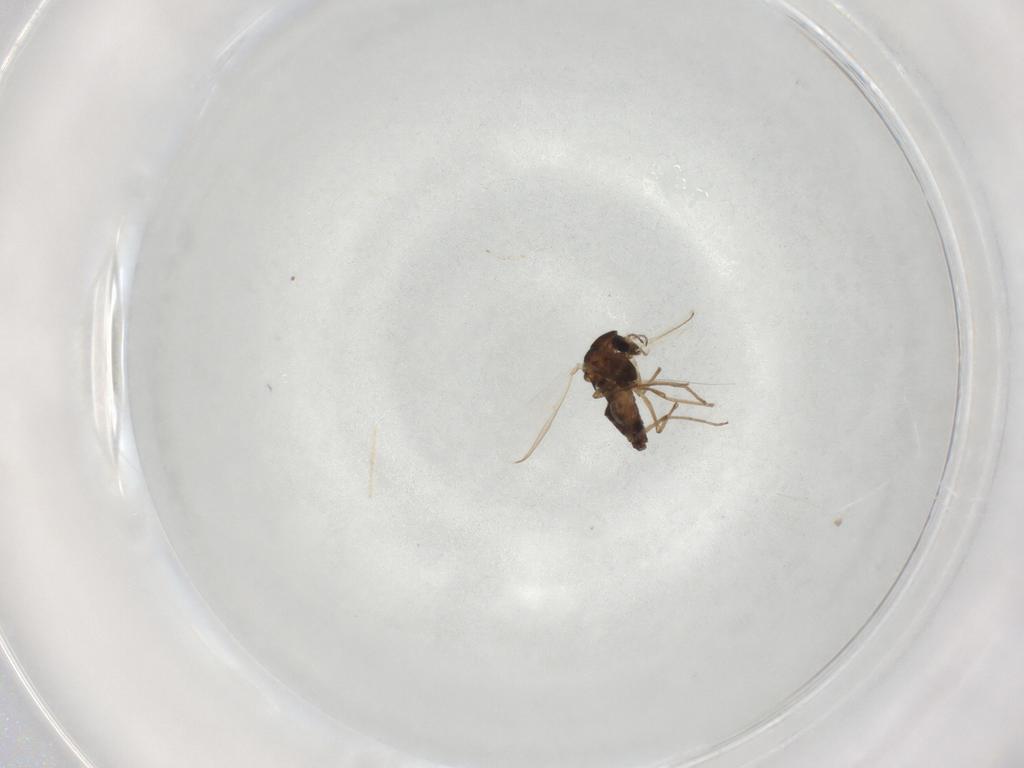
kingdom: Animalia
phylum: Arthropoda
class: Insecta
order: Diptera
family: Chironomidae
